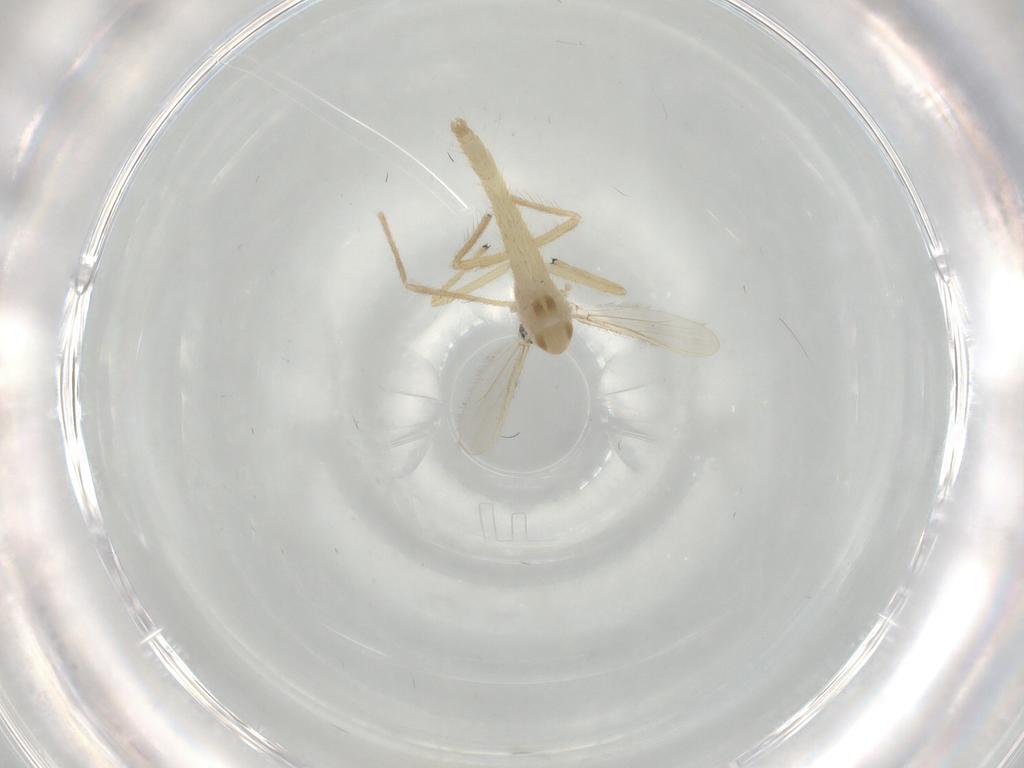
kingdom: Animalia
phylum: Arthropoda
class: Insecta
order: Diptera
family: Chironomidae
